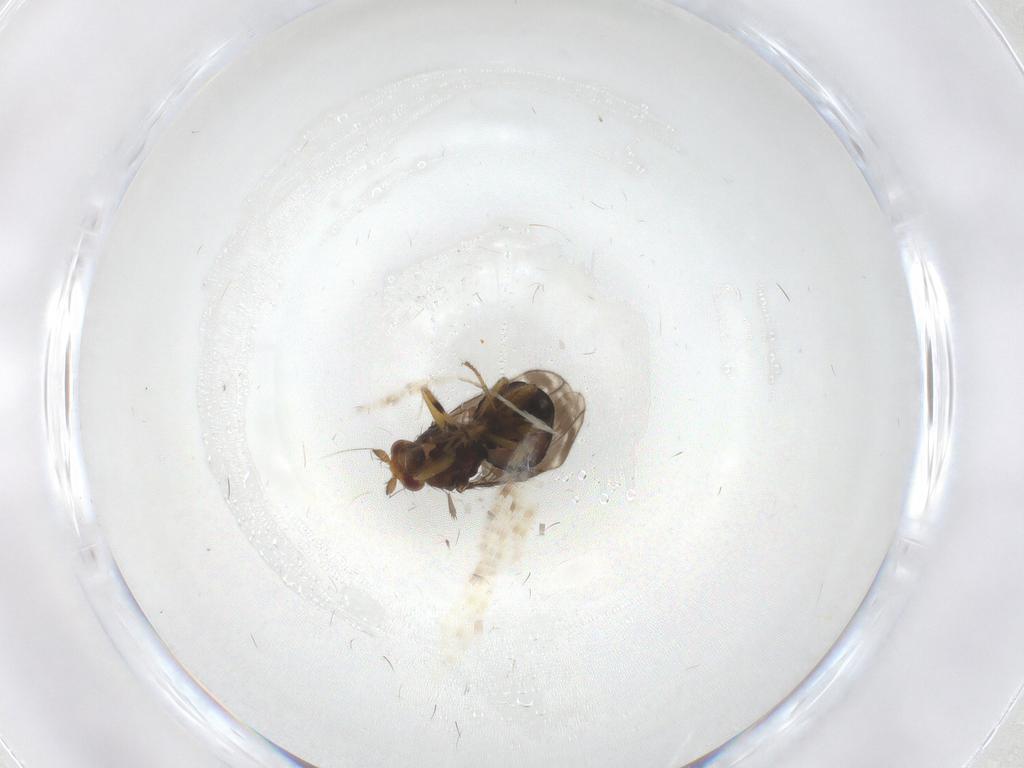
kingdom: Animalia
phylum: Arthropoda
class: Insecta
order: Diptera
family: Sphaeroceridae
